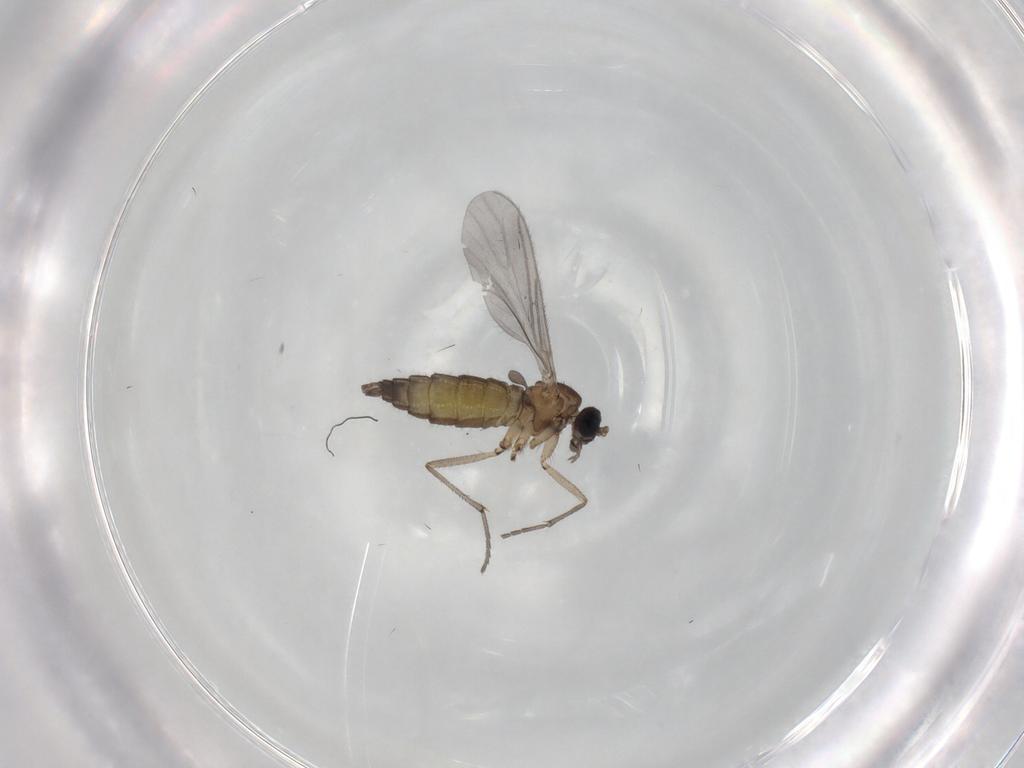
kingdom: Animalia
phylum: Arthropoda
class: Insecta
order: Diptera
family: Sciaridae
